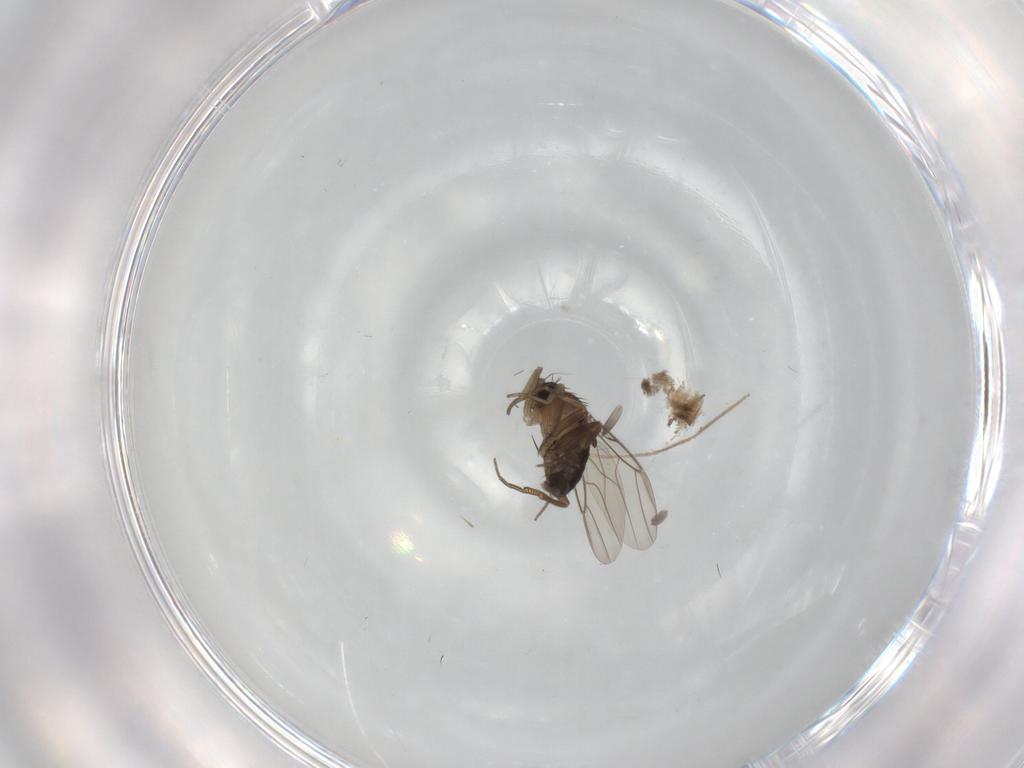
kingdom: Animalia
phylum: Arthropoda
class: Insecta
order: Diptera
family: Phoridae
